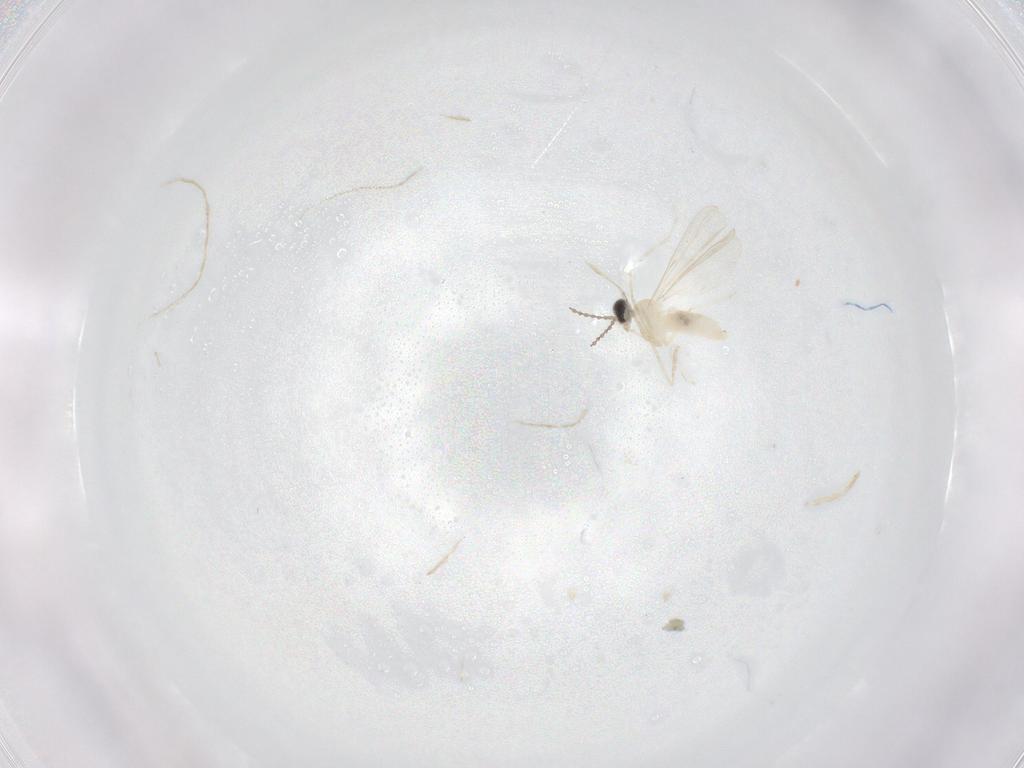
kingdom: Animalia
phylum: Arthropoda
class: Insecta
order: Diptera
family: Cecidomyiidae
